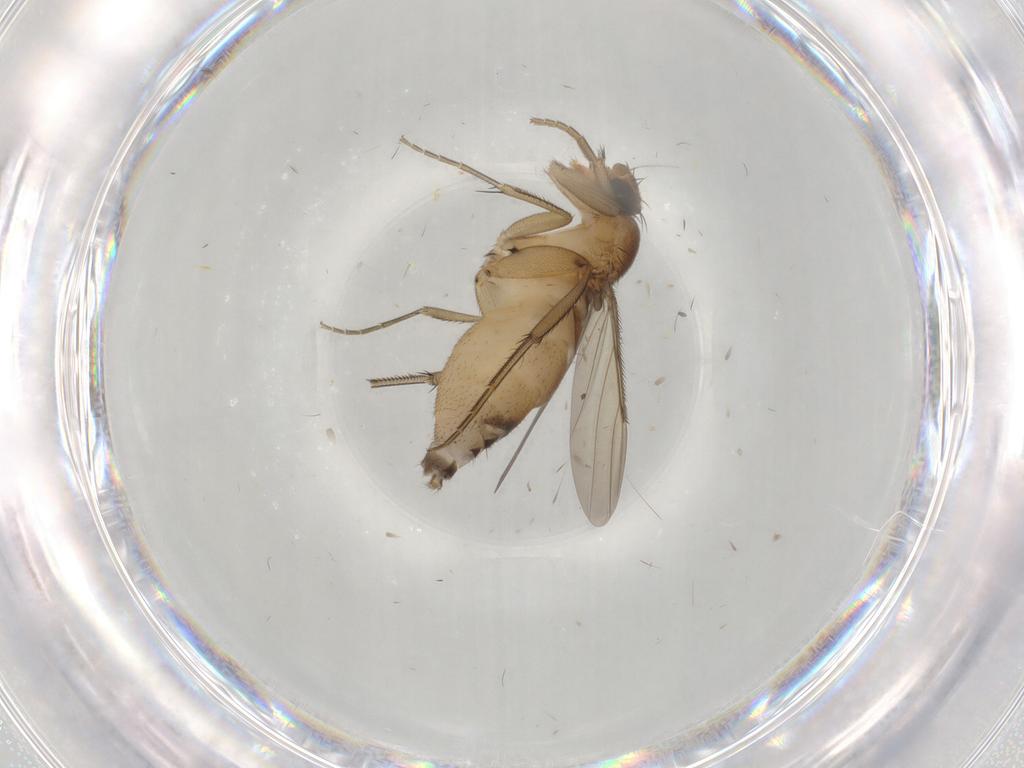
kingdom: Animalia
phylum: Arthropoda
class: Insecta
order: Diptera
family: Phoridae
